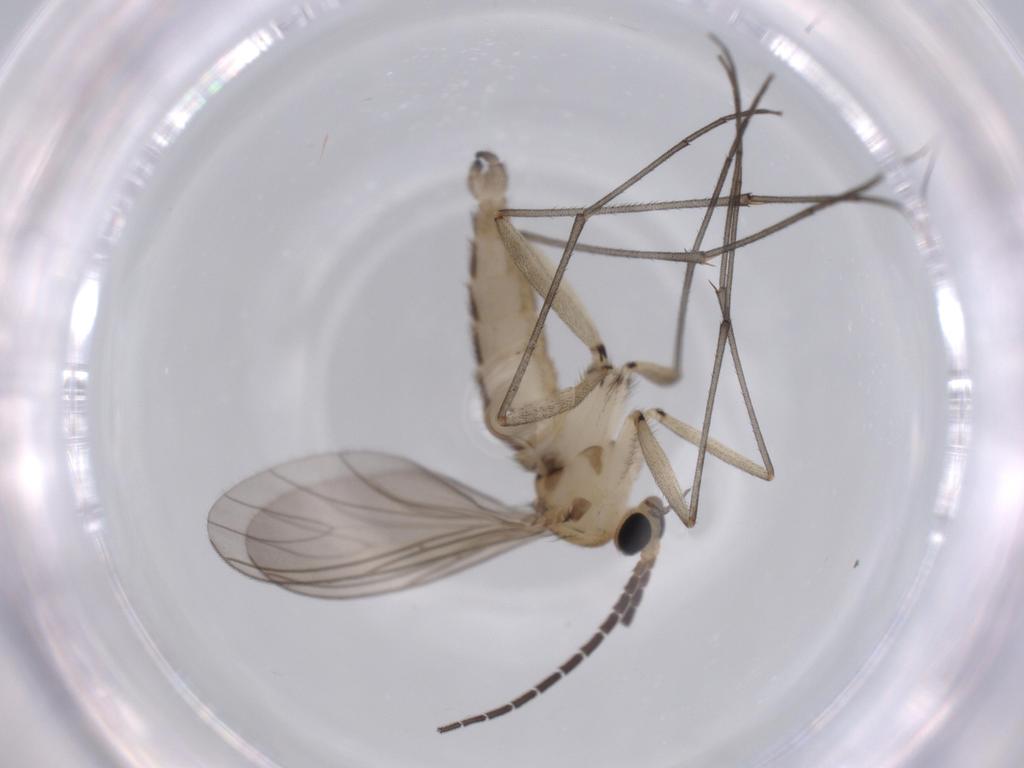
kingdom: Animalia
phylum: Arthropoda
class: Insecta
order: Diptera
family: Sciaridae
